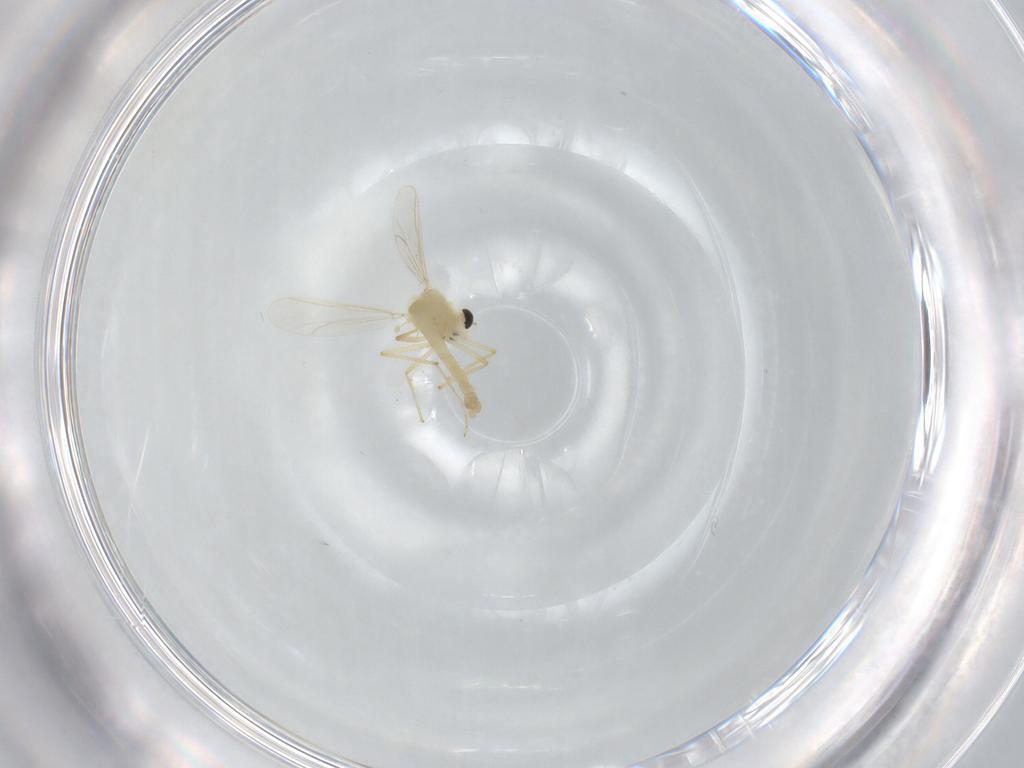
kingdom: Animalia
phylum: Arthropoda
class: Insecta
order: Diptera
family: Chironomidae
